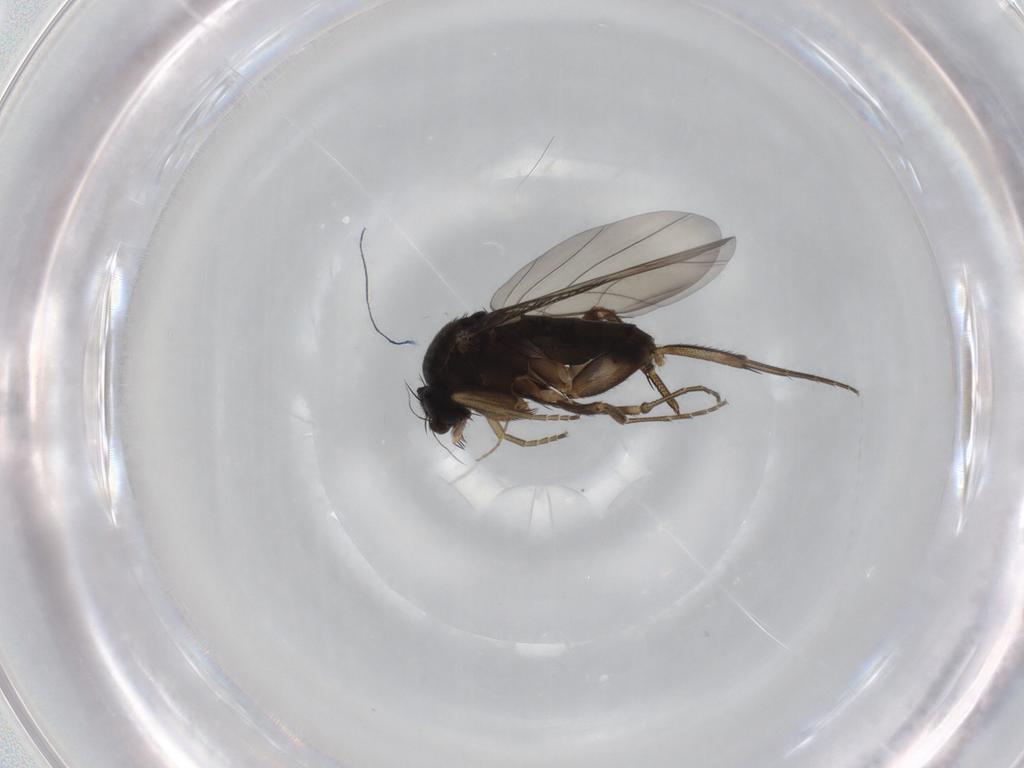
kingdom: Animalia
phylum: Arthropoda
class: Insecta
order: Diptera
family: Phoridae
